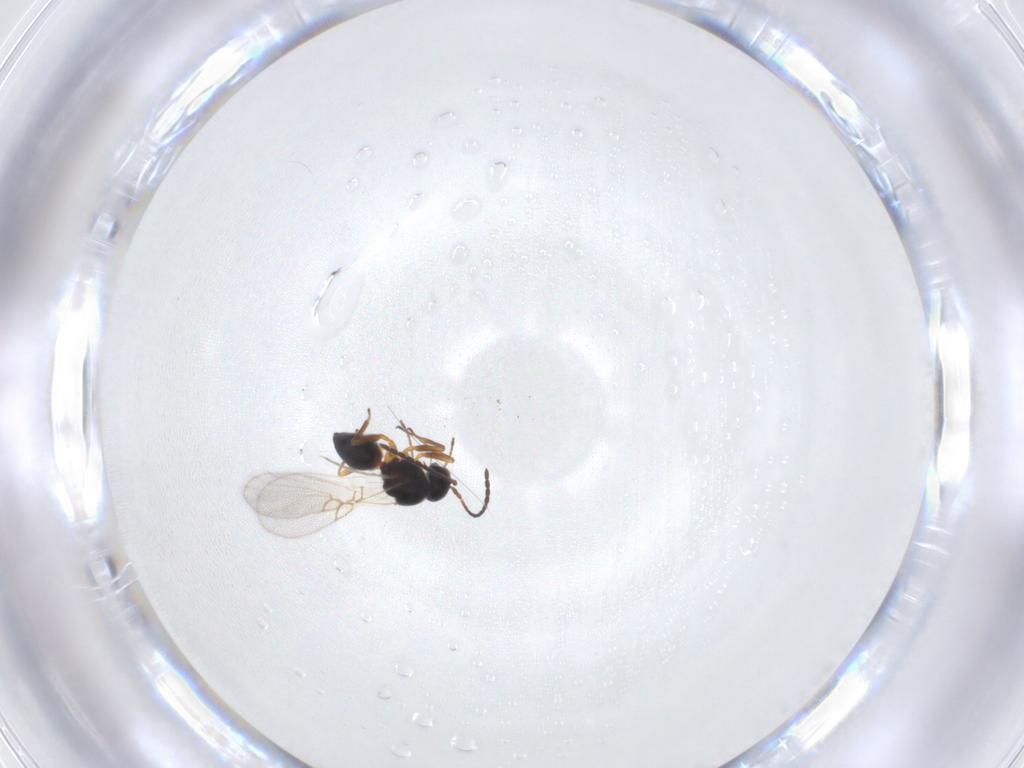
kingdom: Animalia
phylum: Arthropoda
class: Insecta
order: Hymenoptera
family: Figitidae
